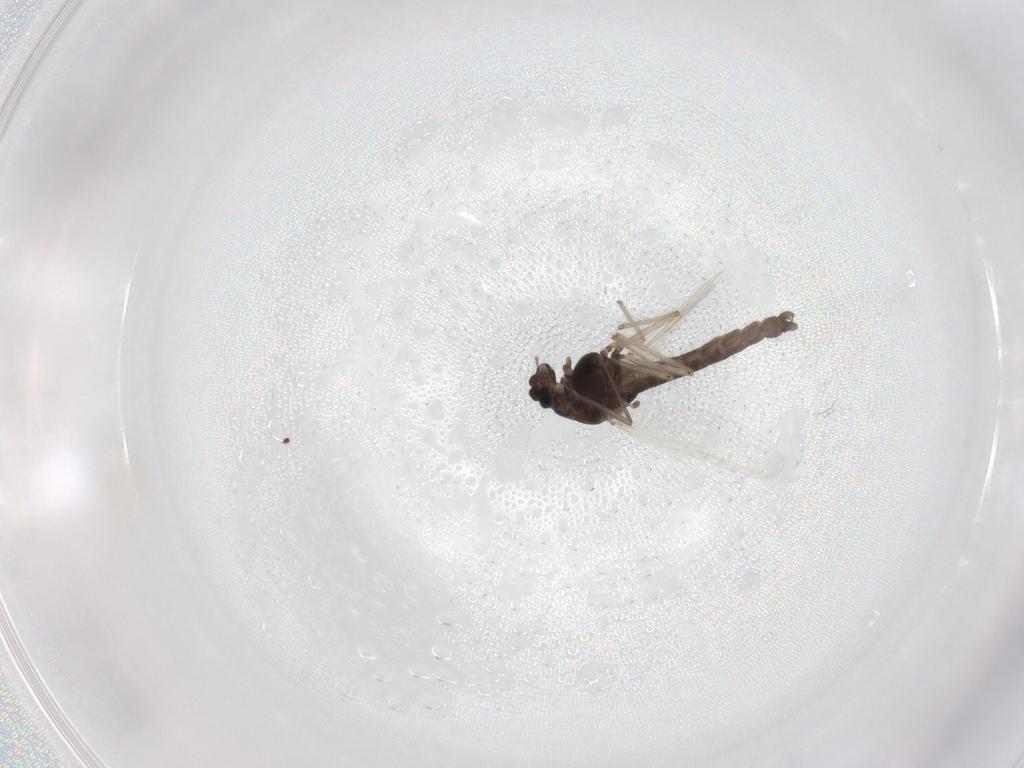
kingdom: Animalia
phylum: Arthropoda
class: Insecta
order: Diptera
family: Chironomidae
